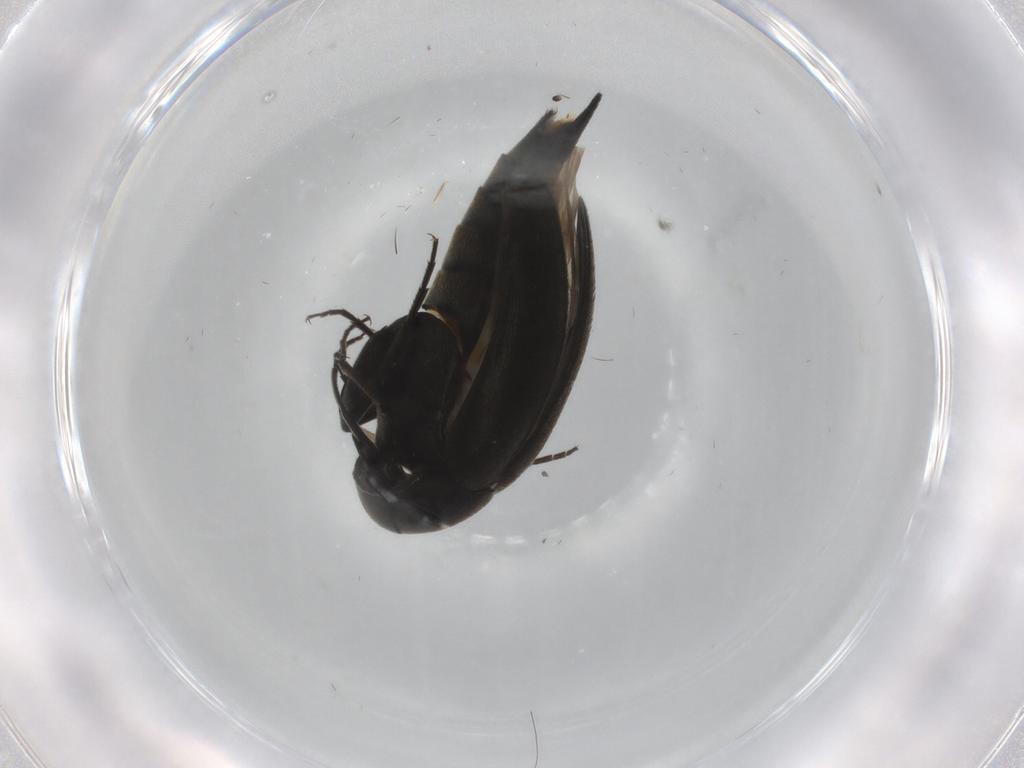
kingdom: Animalia
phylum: Arthropoda
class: Insecta
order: Coleoptera
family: Mordellidae
